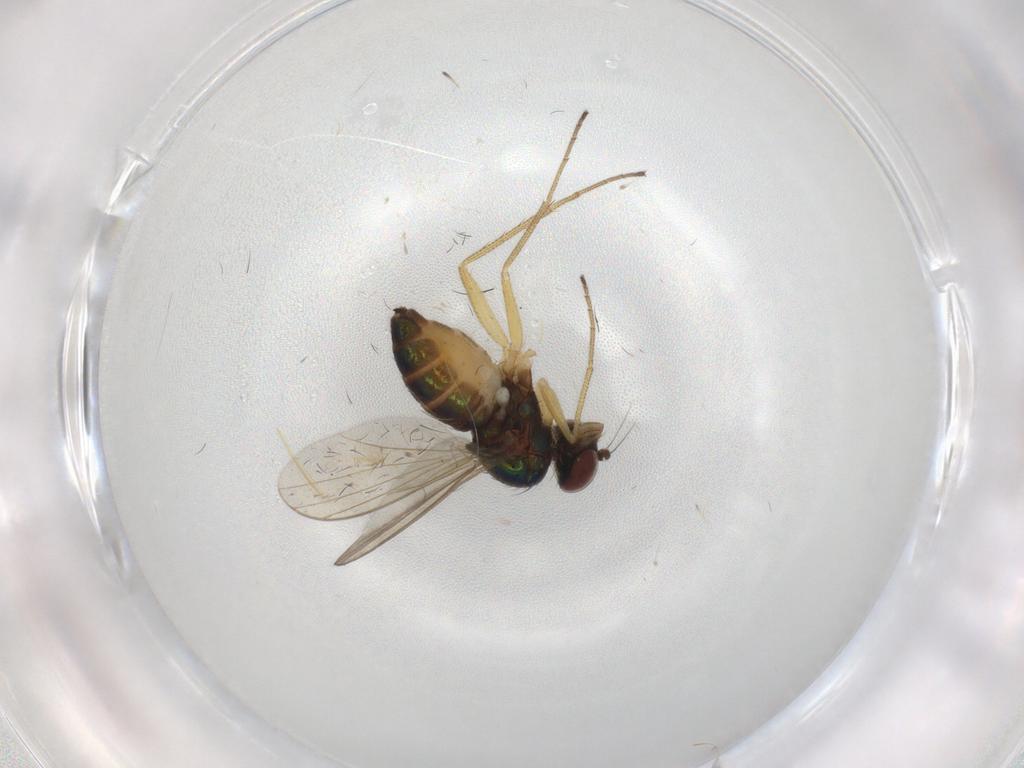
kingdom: Animalia
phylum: Arthropoda
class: Insecta
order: Diptera
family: Dolichopodidae
